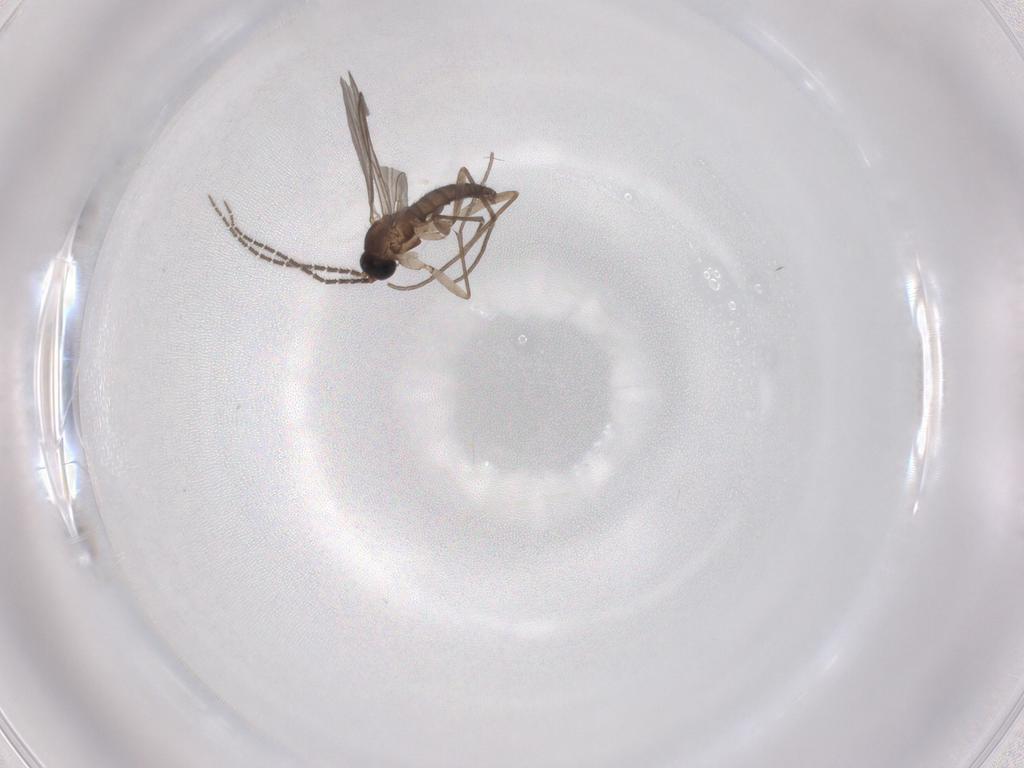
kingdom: Animalia
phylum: Arthropoda
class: Insecta
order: Diptera
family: Sciaridae
